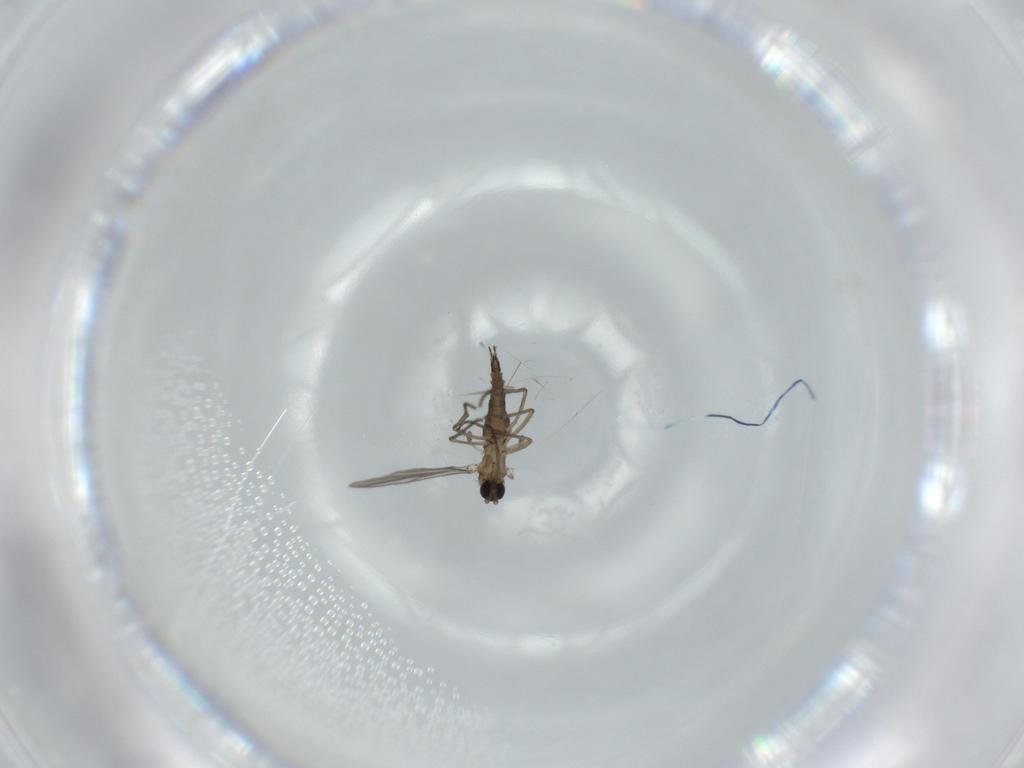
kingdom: Animalia
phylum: Arthropoda
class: Insecta
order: Diptera
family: Sciaridae
